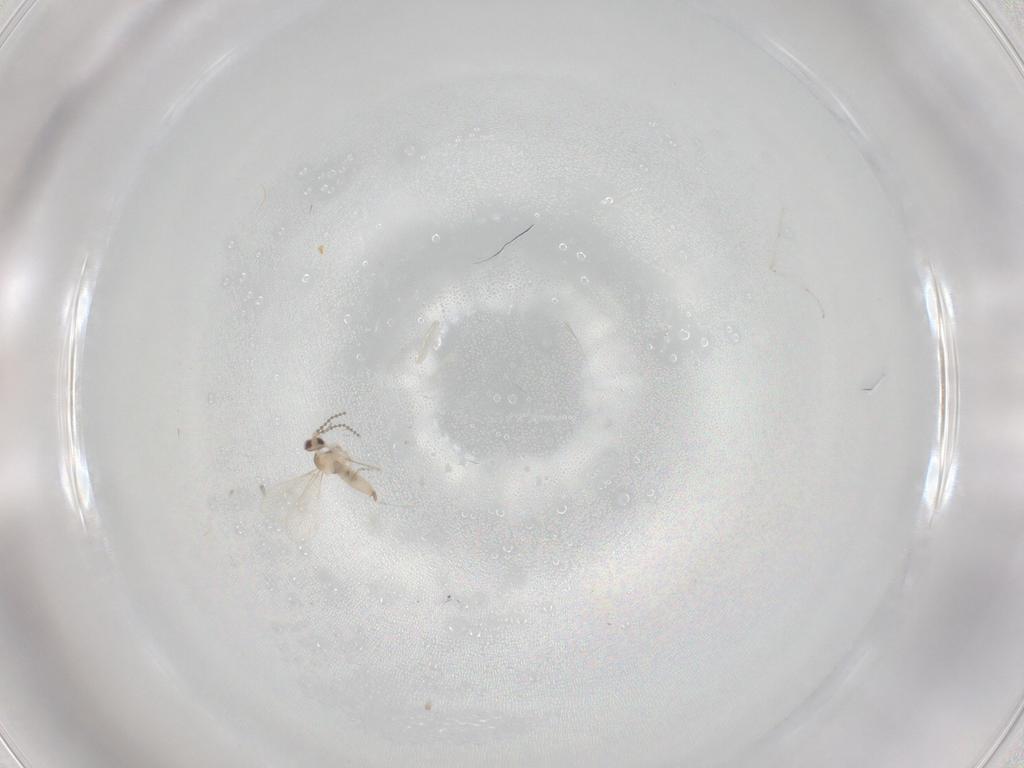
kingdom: Animalia
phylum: Arthropoda
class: Insecta
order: Diptera
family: Cecidomyiidae
